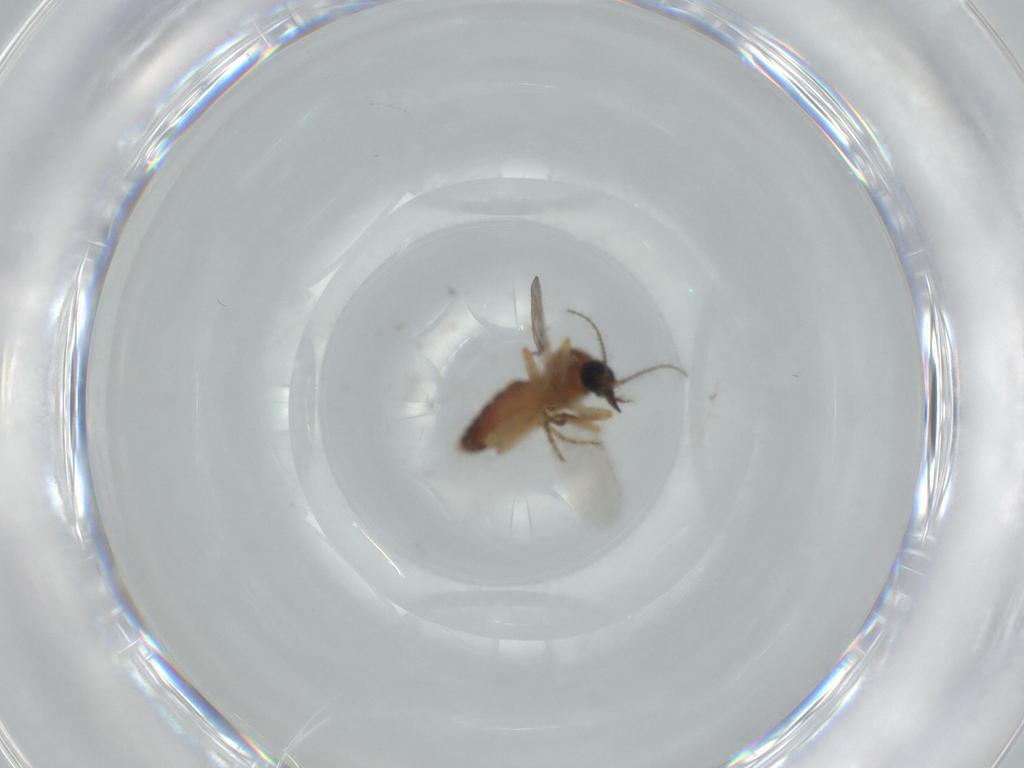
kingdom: Animalia
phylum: Arthropoda
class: Insecta
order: Diptera
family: Ceratopogonidae
